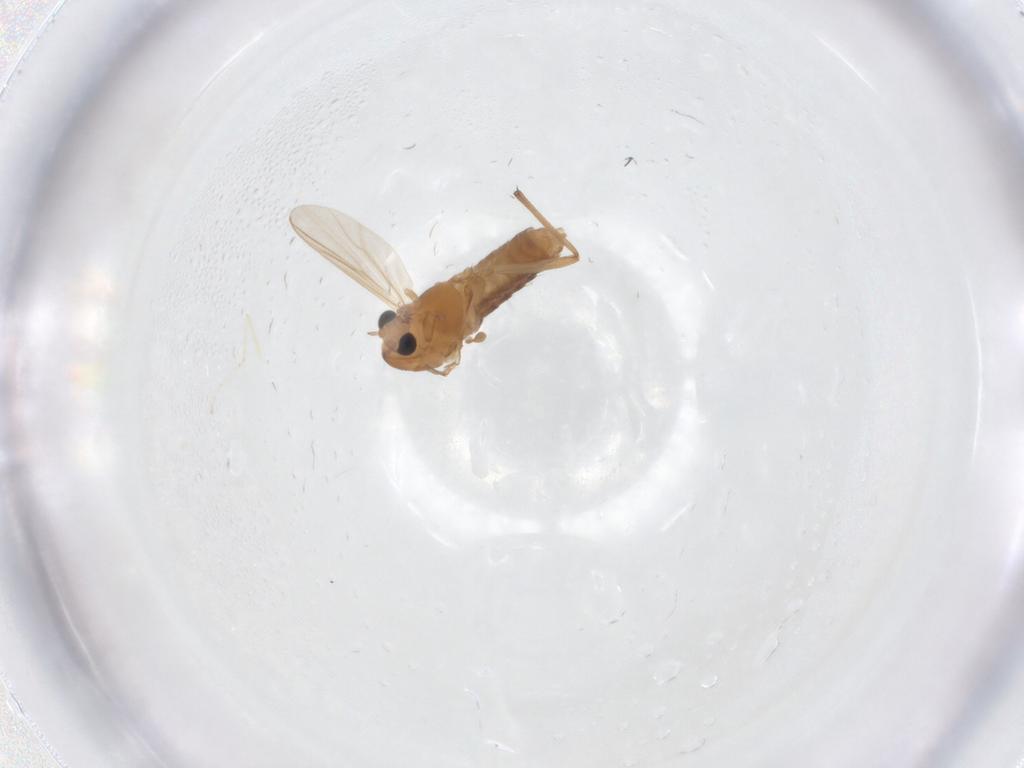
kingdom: Animalia
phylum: Arthropoda
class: Insecta
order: Diptera
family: Chironomidae
